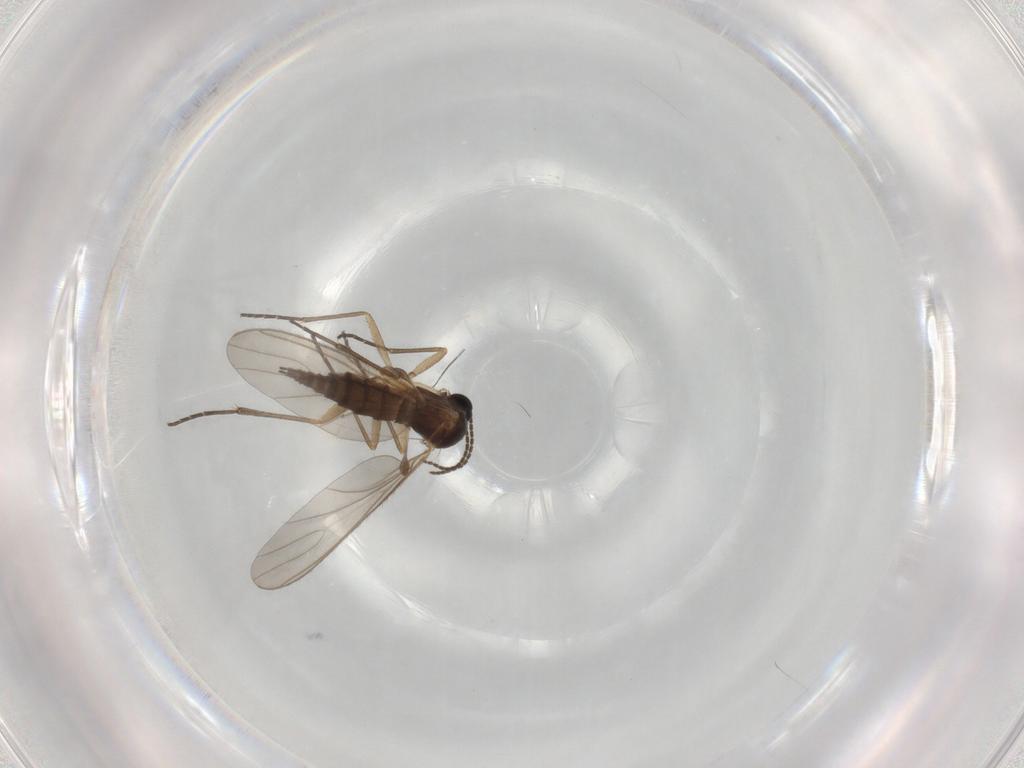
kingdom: Animalia
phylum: Arthropoda
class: Insecta
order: Diptera
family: Sciaridae
